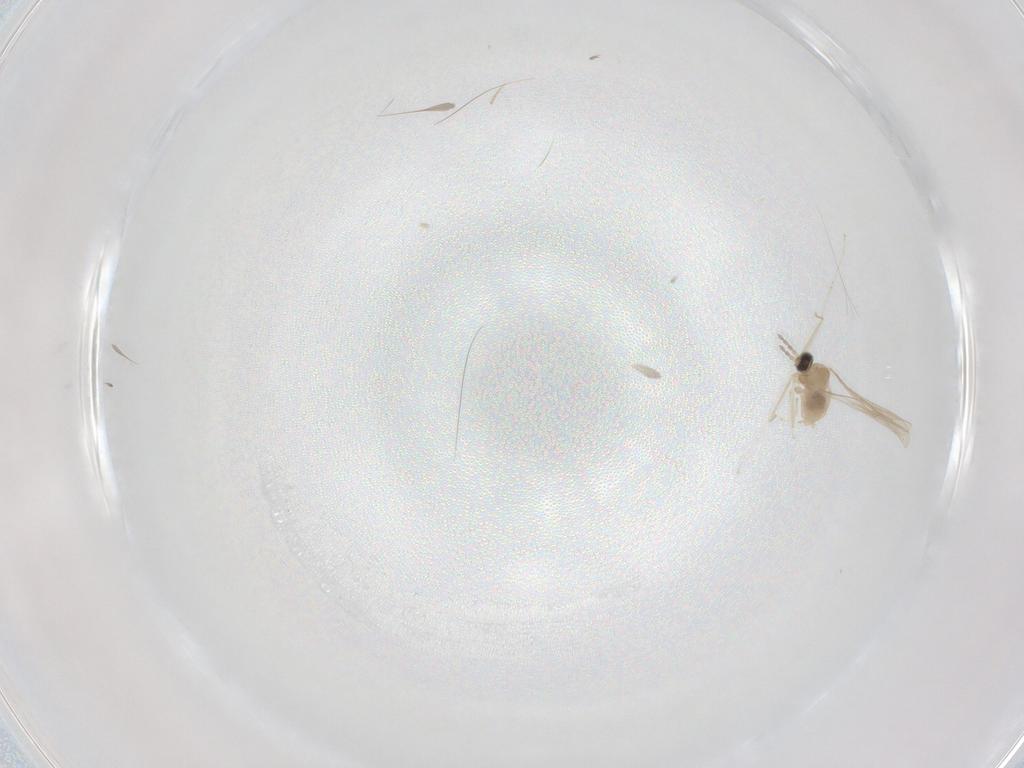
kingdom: Animalia
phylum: Arthropoda
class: Insecta
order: Diptera
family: Cecidomyiidae
